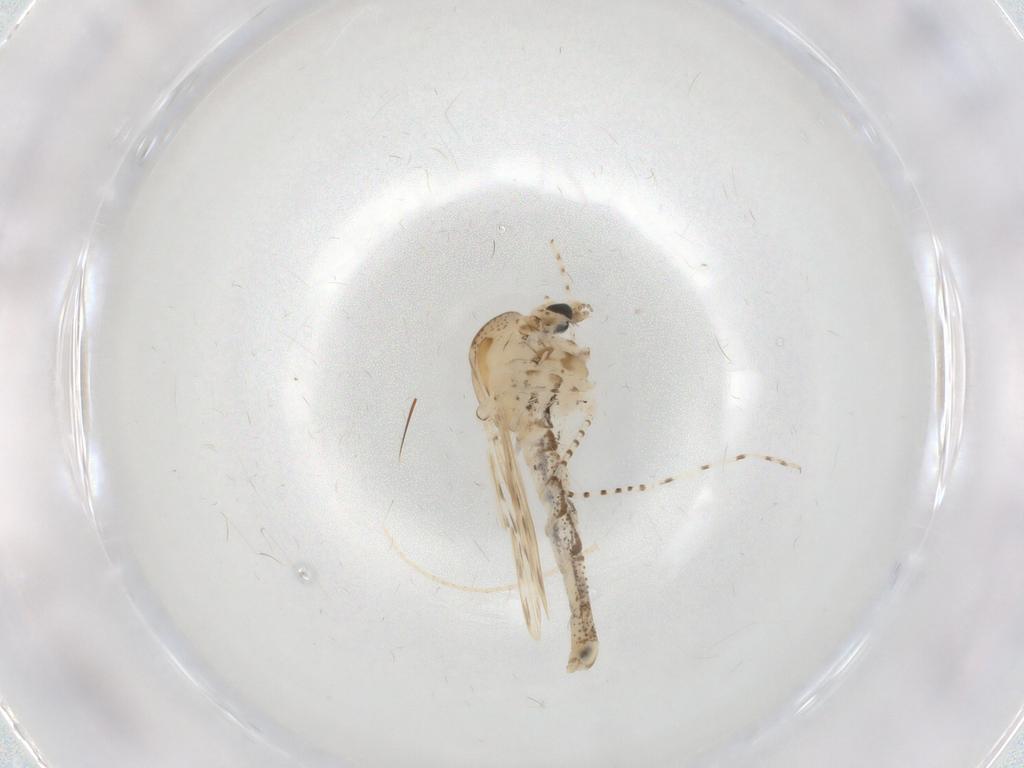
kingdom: Animalia
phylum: Arthropoda
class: Insecta
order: Diptera
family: Chaoboridae
